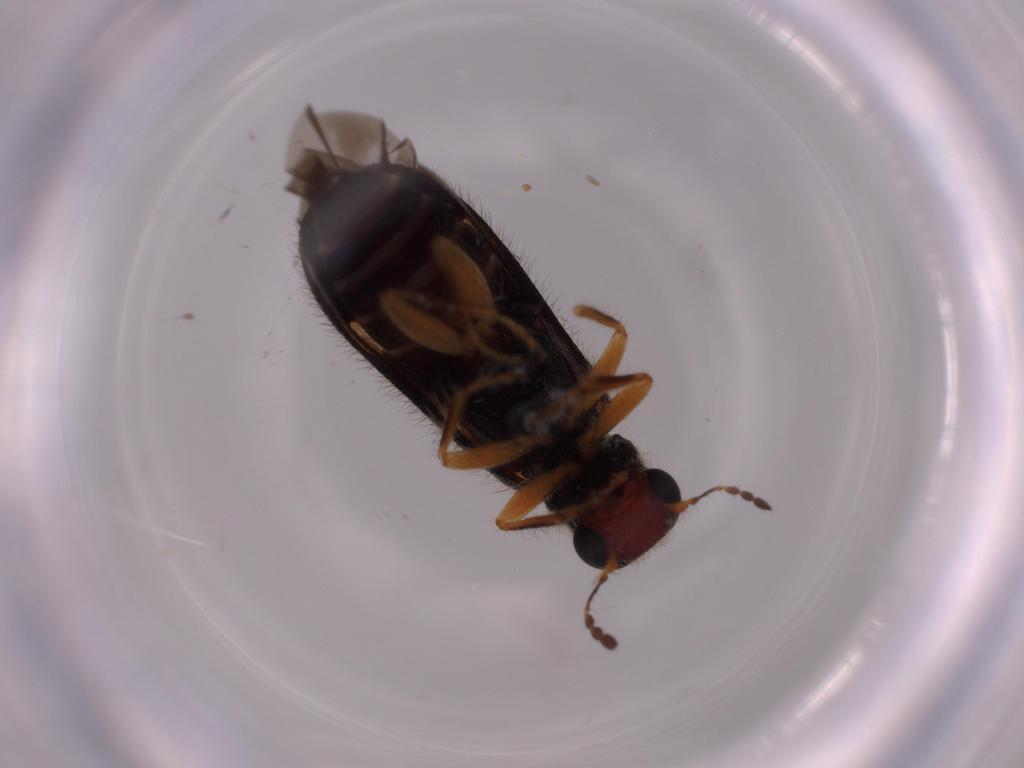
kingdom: Animalia
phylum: Arthropoda
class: Insecta
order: Coleoptera
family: Cleridae
